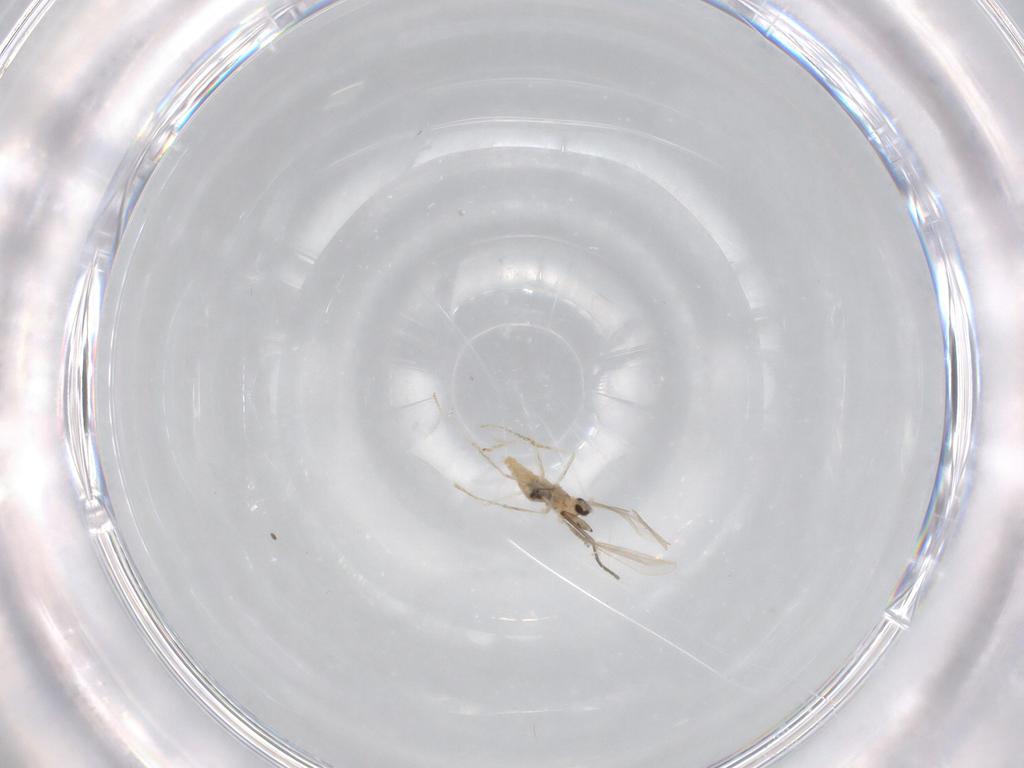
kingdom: Animalia
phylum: Arthropoda
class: Insecta
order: Diptera
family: Cecidomyiidae
